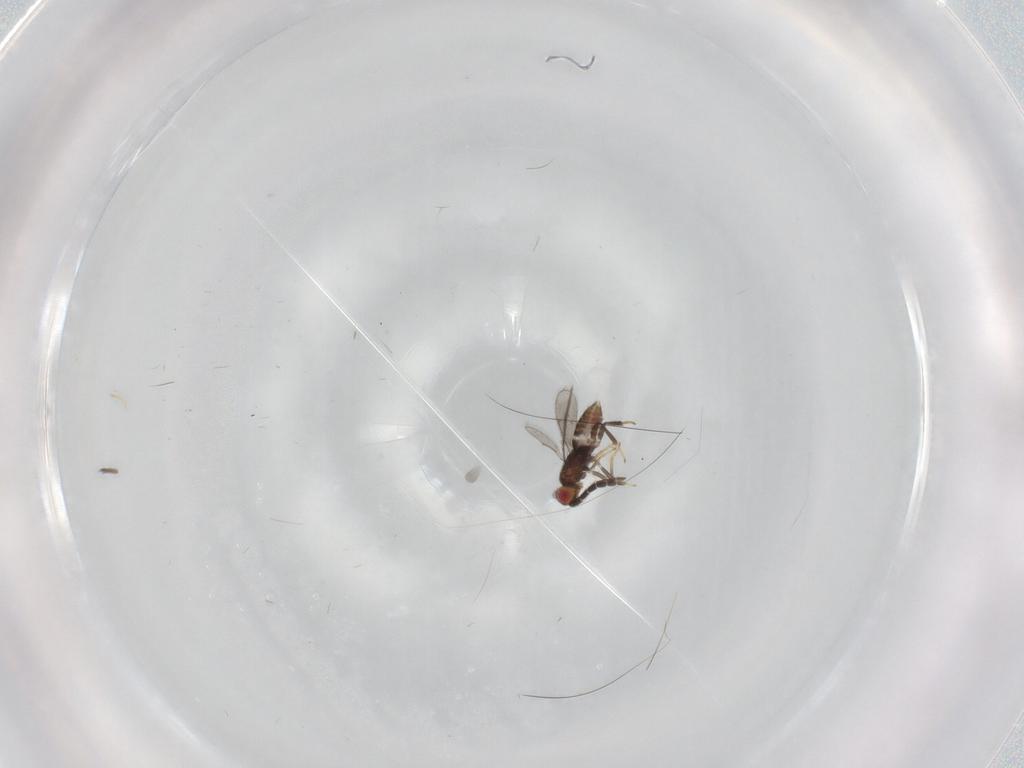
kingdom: Animalia
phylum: Arthropoda
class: Insecta
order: Hymenoptera
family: Aphelinidae
